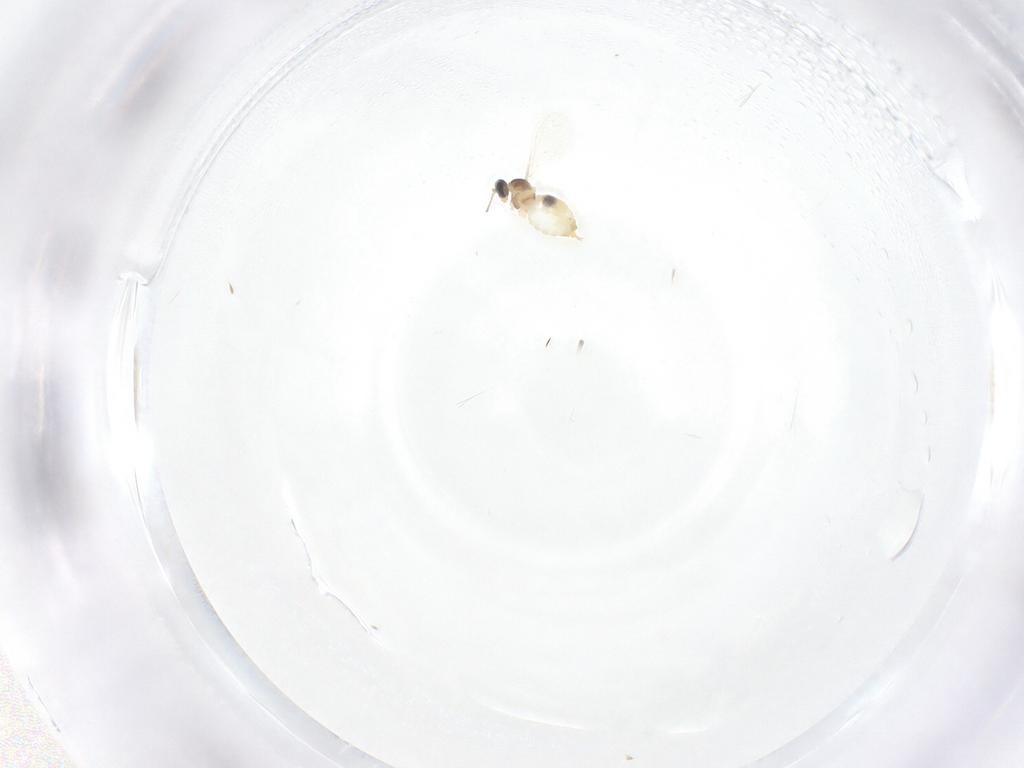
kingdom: Animalia
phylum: Arthropoda
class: Insecta
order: Diptera
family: Cecidomyiidae
